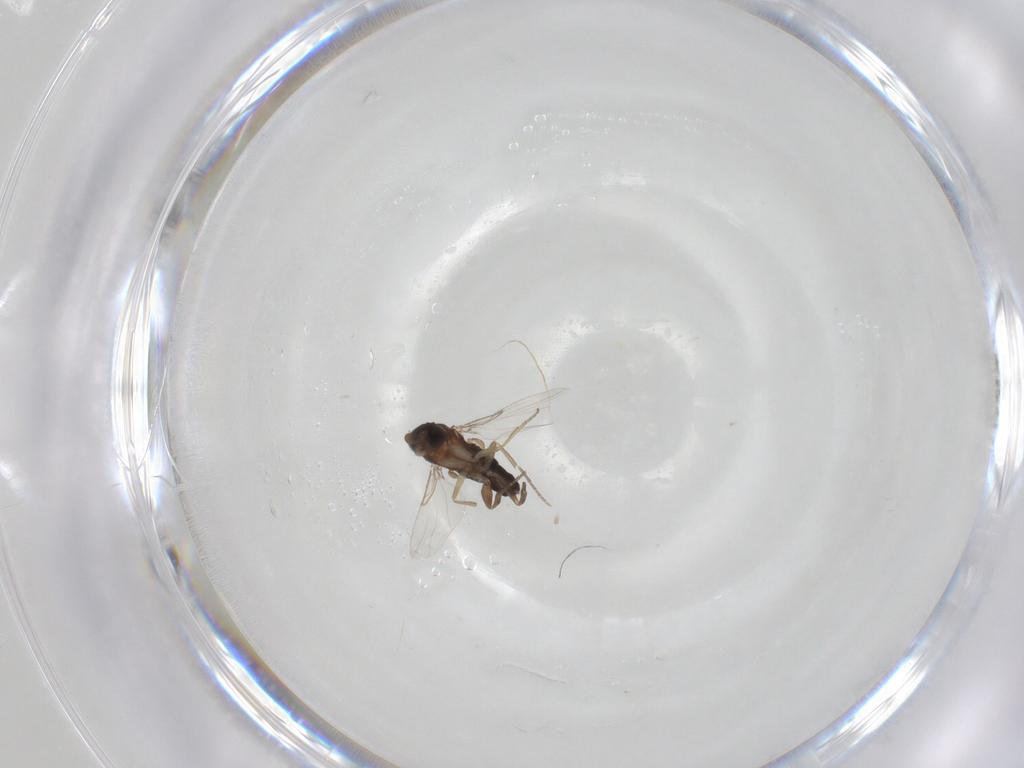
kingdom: Animalia
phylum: Arthropoda
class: Insecta
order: Diptera
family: Phoridae
